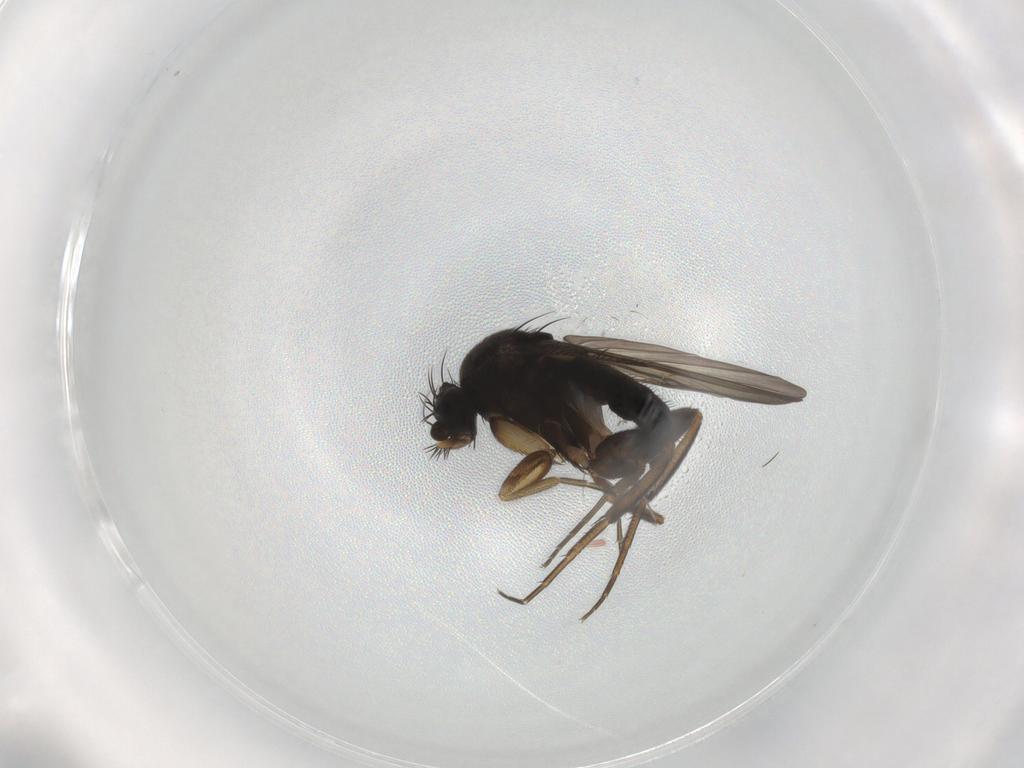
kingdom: Animalia
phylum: Arthropoda
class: Insecta
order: Diptera
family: Phoridae
